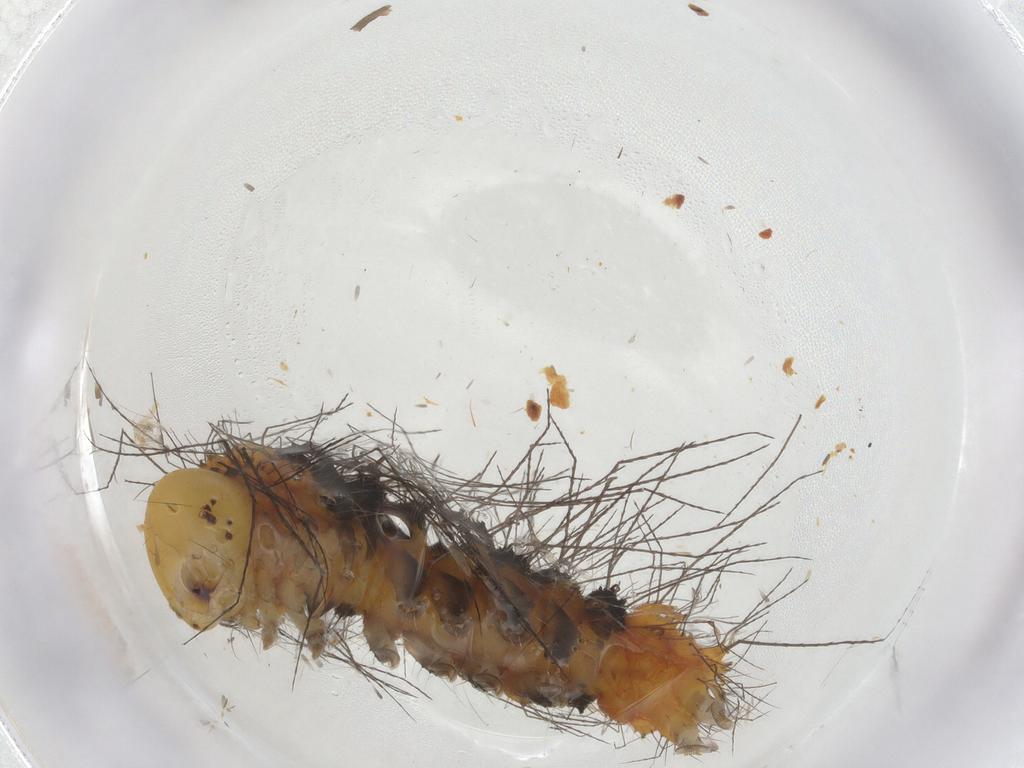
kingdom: Animalia
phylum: Arthropoda
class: Insecta
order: Lepidoptera
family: Erebidae
